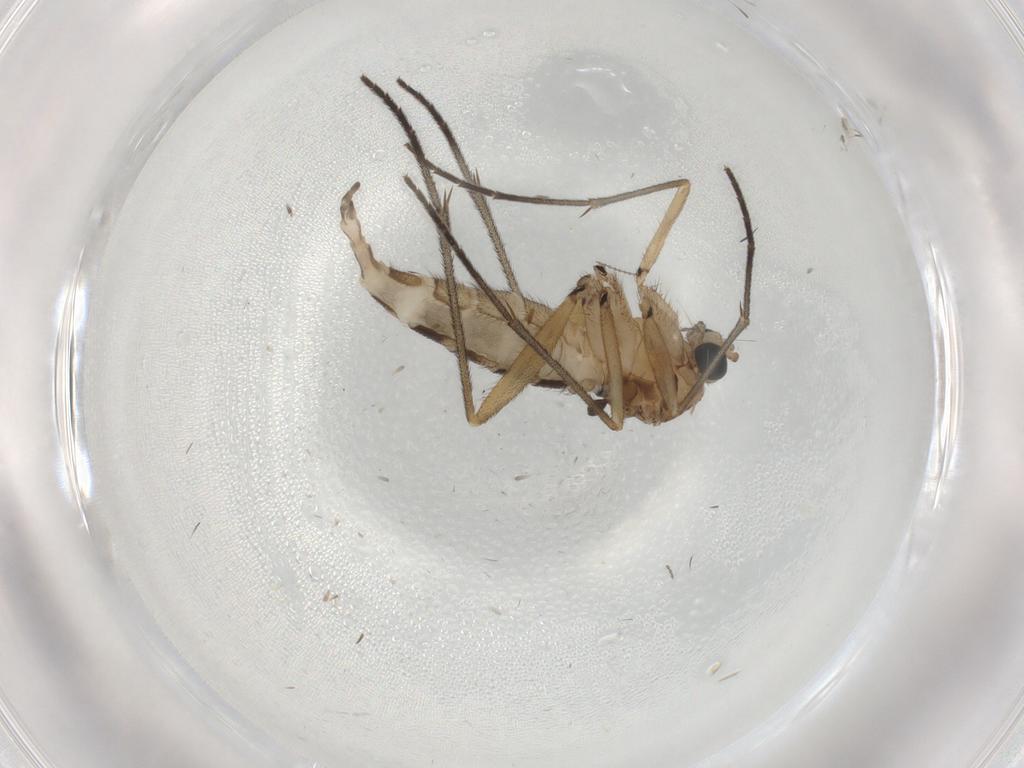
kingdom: Animalia
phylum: Arthropoda
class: Insecta
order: Diptera
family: Sciaridae
